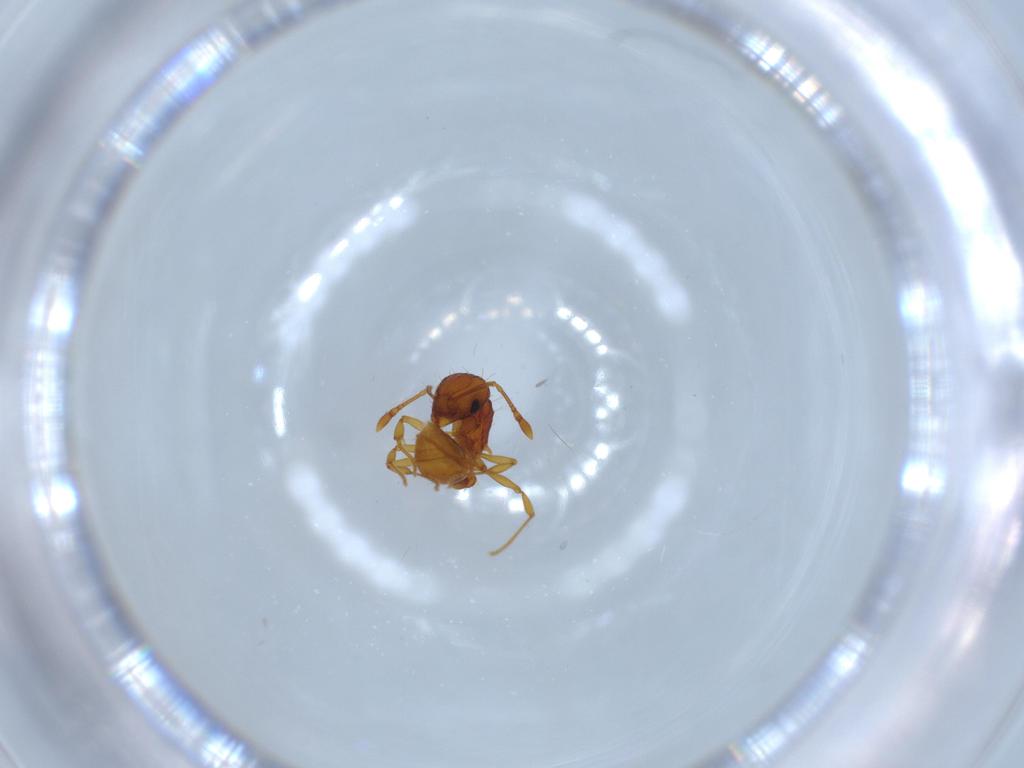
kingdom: Animalia
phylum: Arthropoda
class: Insecta
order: Hymenoptera
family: Formicidae
